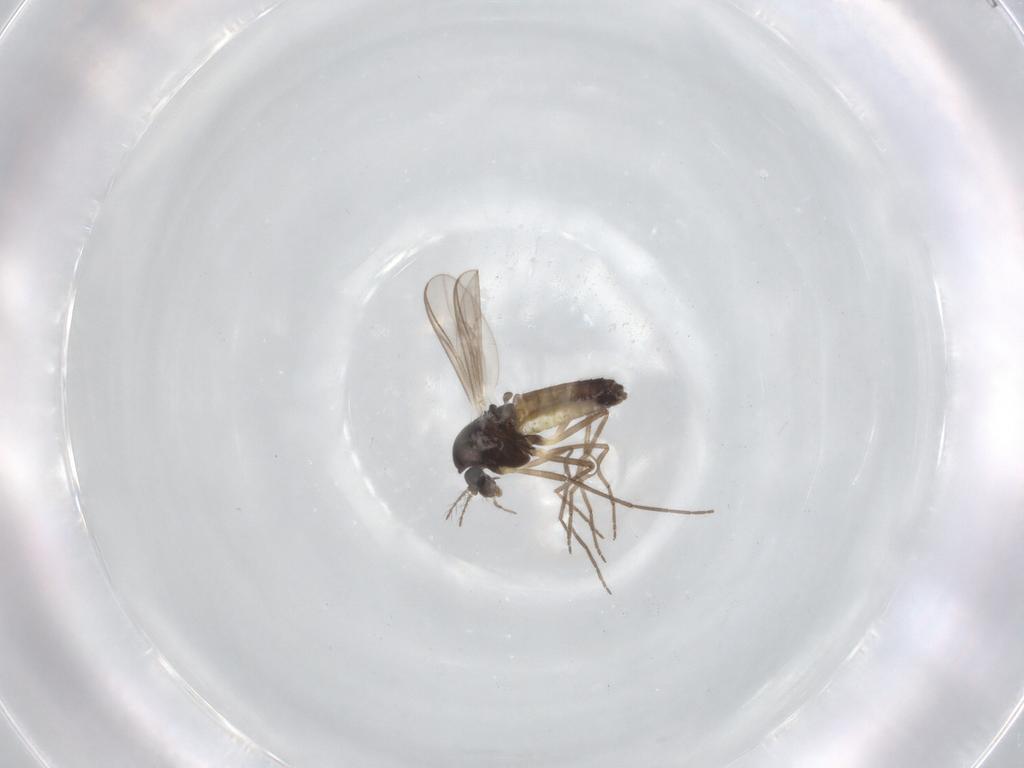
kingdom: Animalia
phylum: Arthropoda
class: Insecta
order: Diptera
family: Chironomidae
